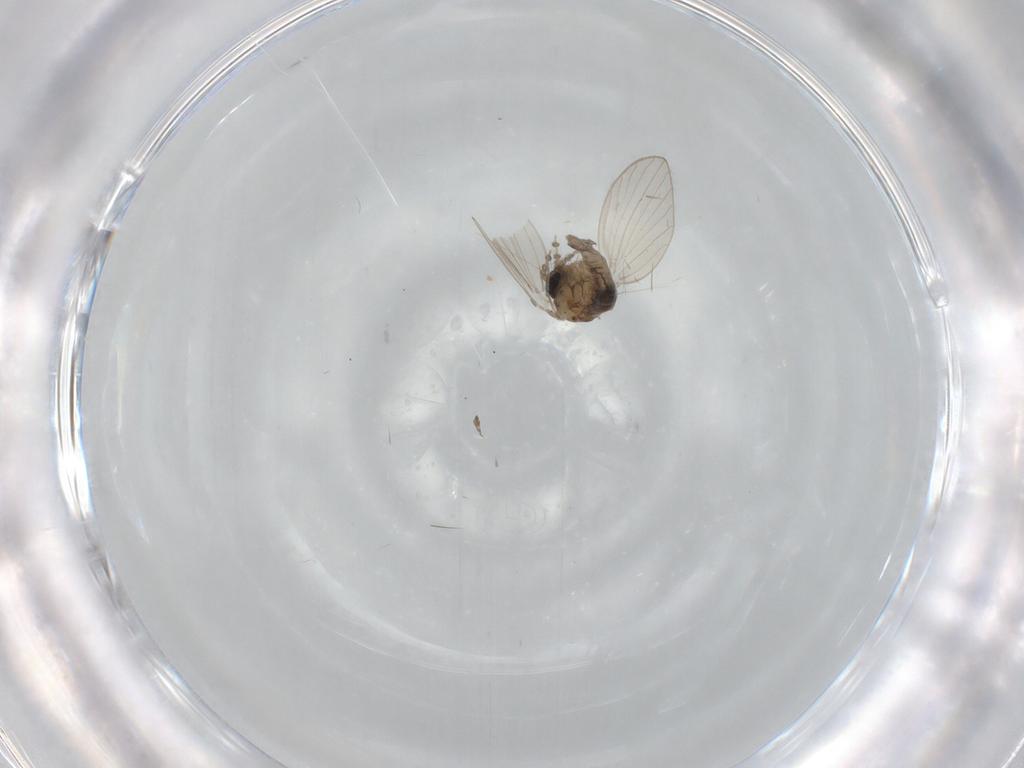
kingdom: Animalia
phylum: Arthropoda
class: Insecta
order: Diptera
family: Psychodidae
